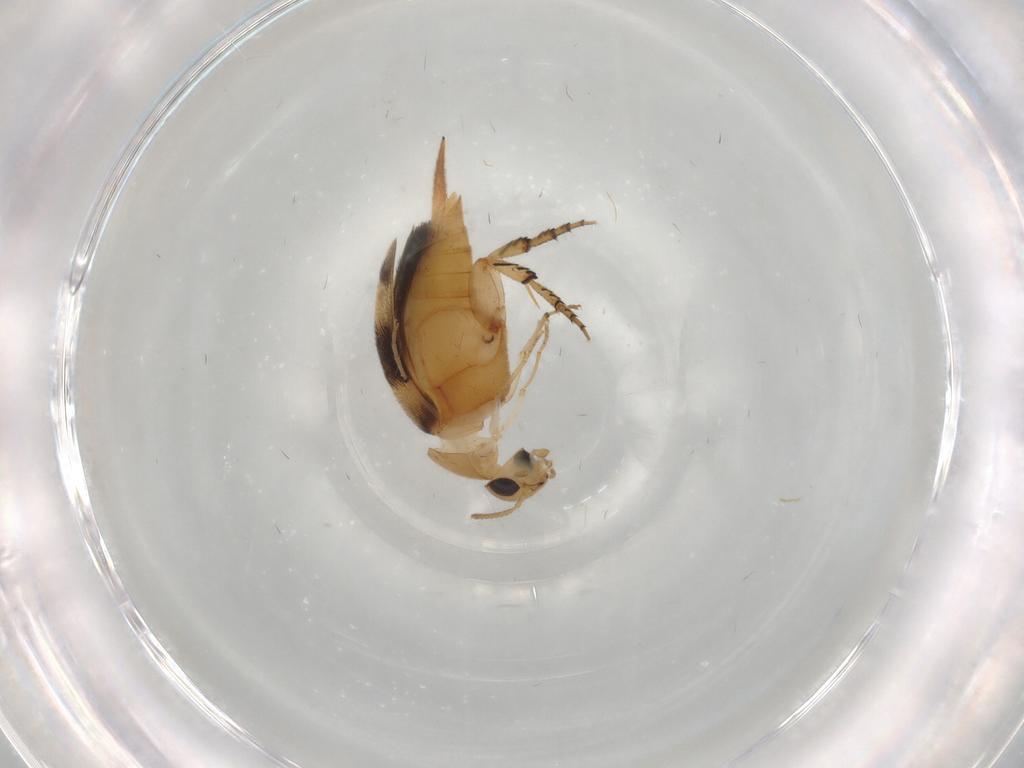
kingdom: Animalia
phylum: Arthropoda
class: Insecta
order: Coleoptera
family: Mordellidae
